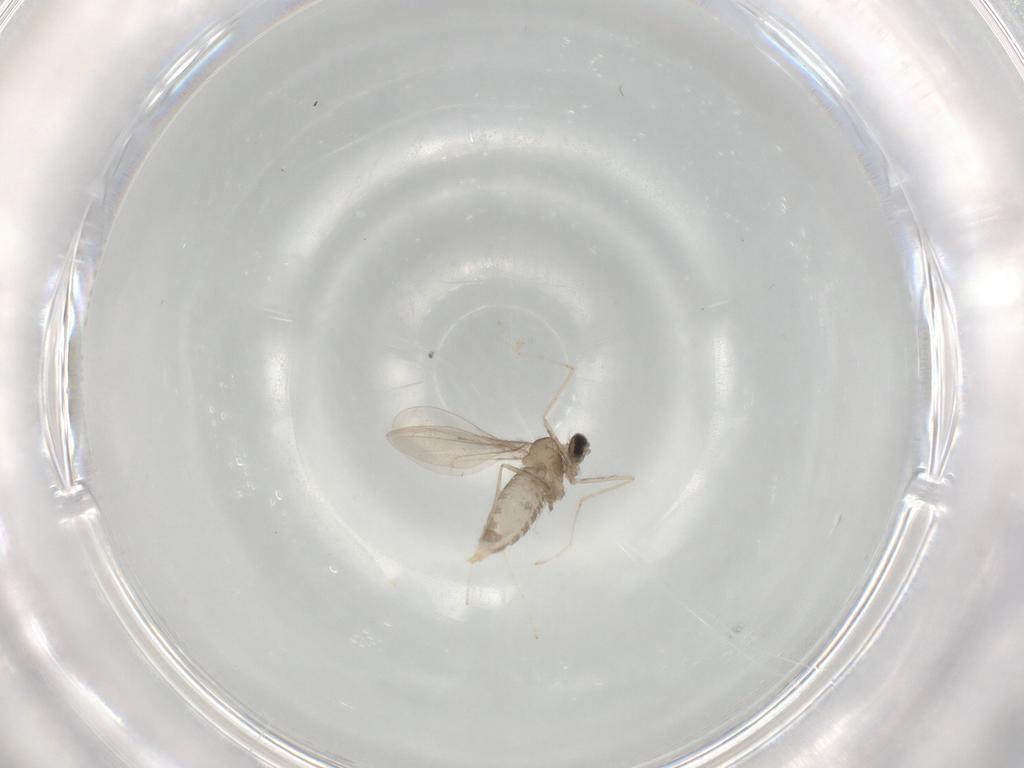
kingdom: Animalia
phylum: Arthropoda
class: Insecta
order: Diptera
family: Cecidomyiidae
